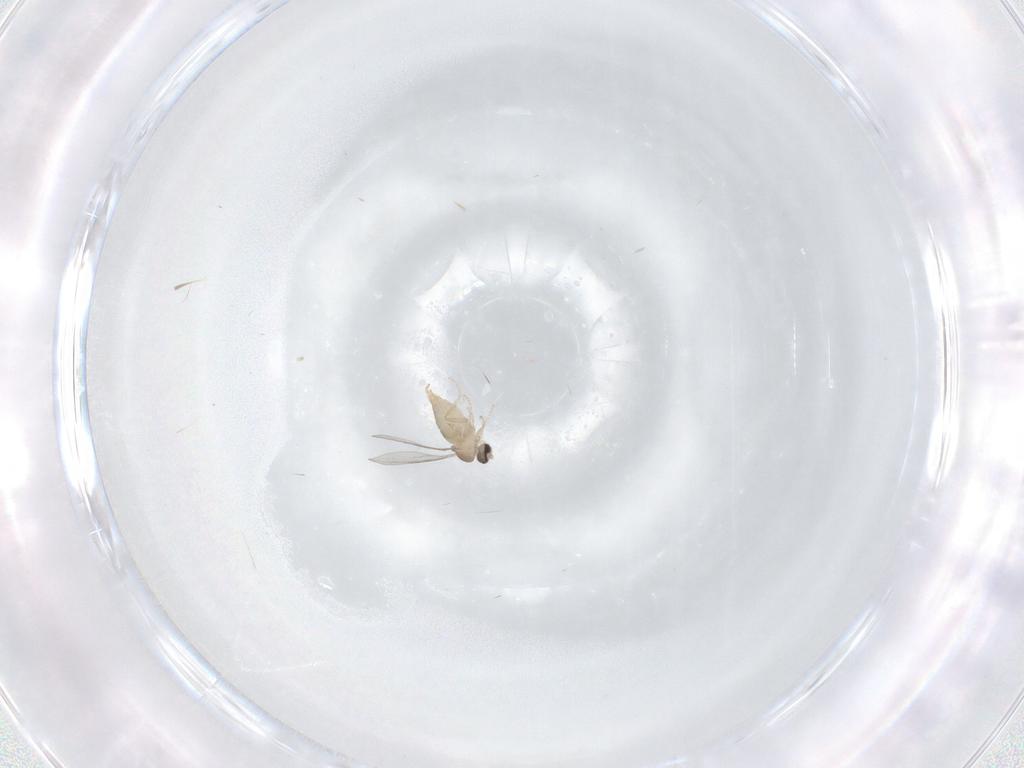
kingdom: Animalia
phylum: Arthropoda
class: Insecta
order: Diptera
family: Cecidomyiidae
